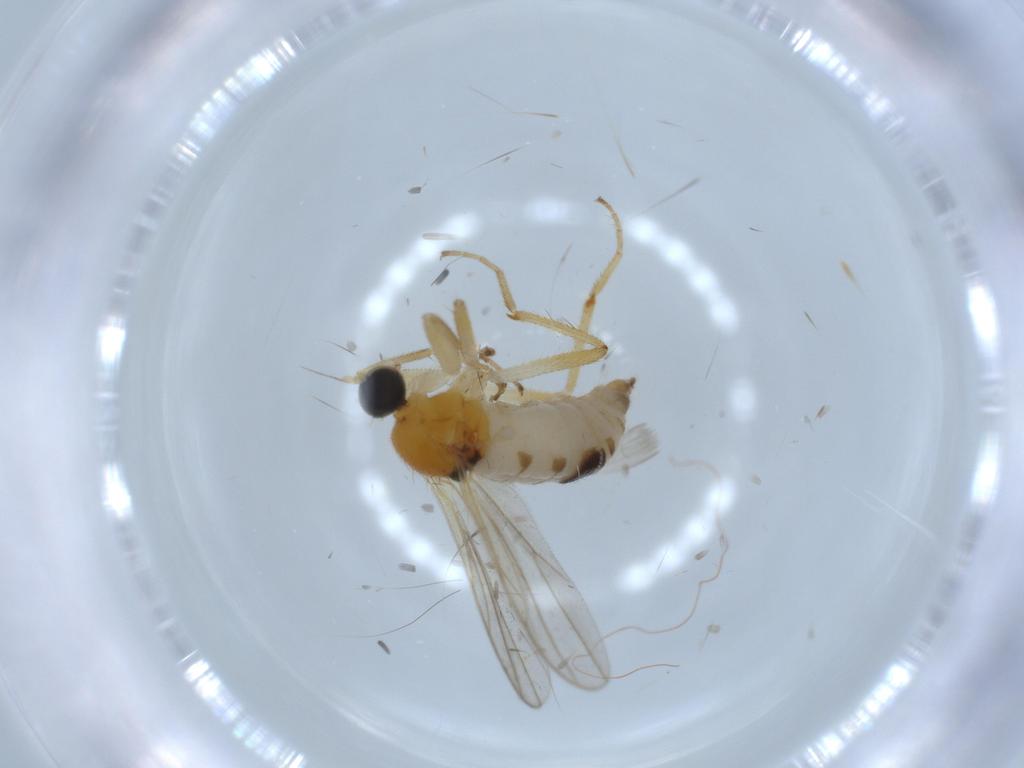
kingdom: Animalia
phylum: Arthropoda
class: Insecta
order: Diptera
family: Hybotidae
